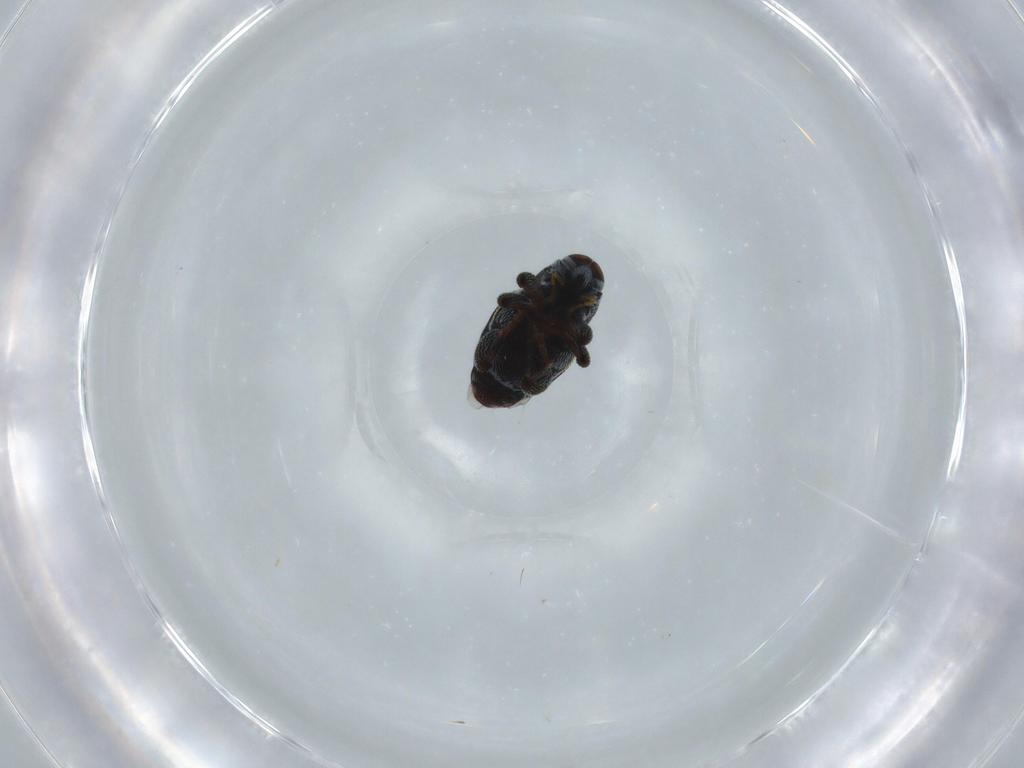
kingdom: Animalia
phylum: Arthropoda
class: Insecta
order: Coleoptera
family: Curculionidae
